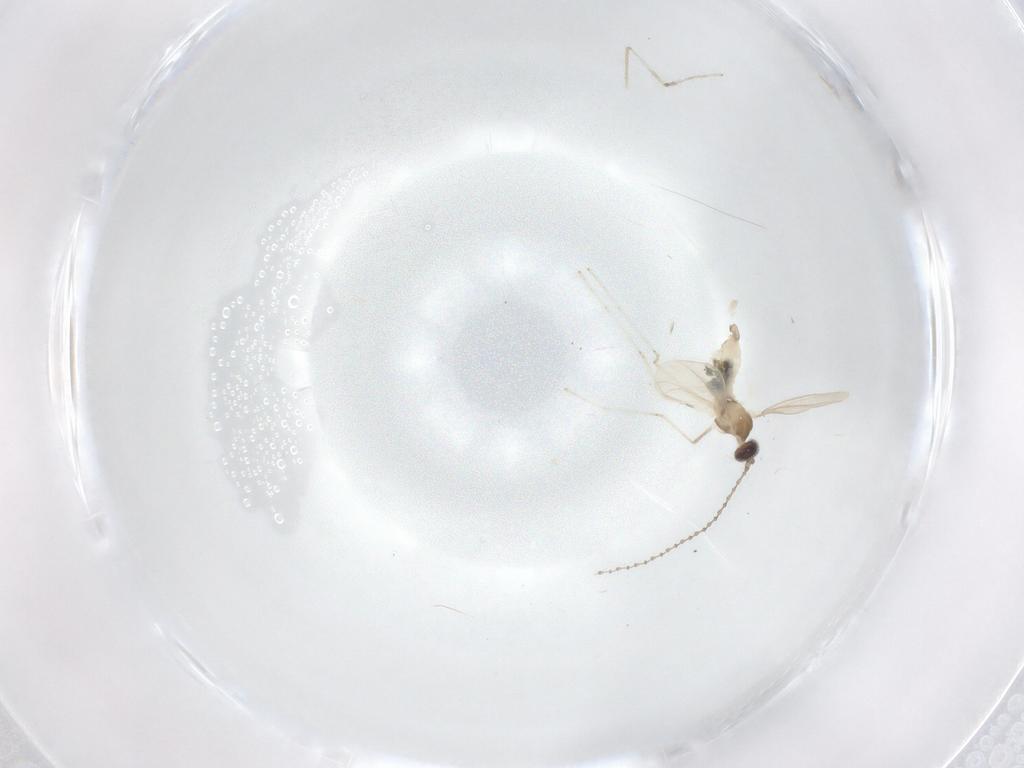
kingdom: Animalia
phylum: Arthropoda
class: Insecta
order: Diptera
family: Cecidomyiidae
